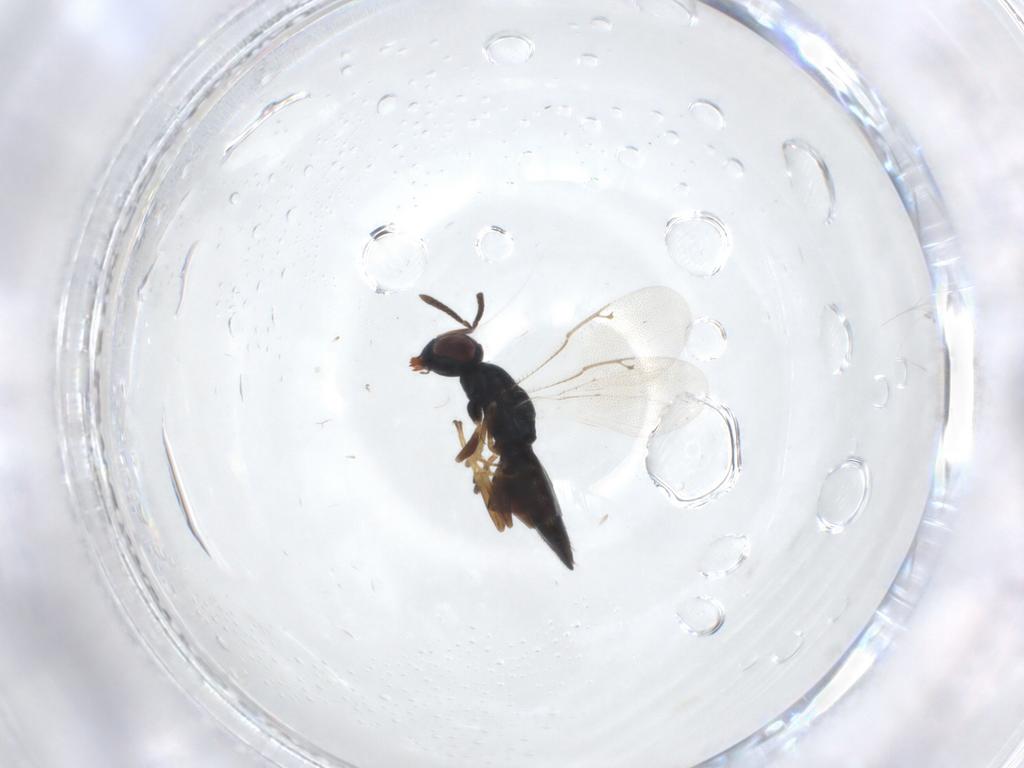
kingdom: Animalia
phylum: Arthropoda
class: Insecta
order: Hymenoptera
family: Pteromalidae
